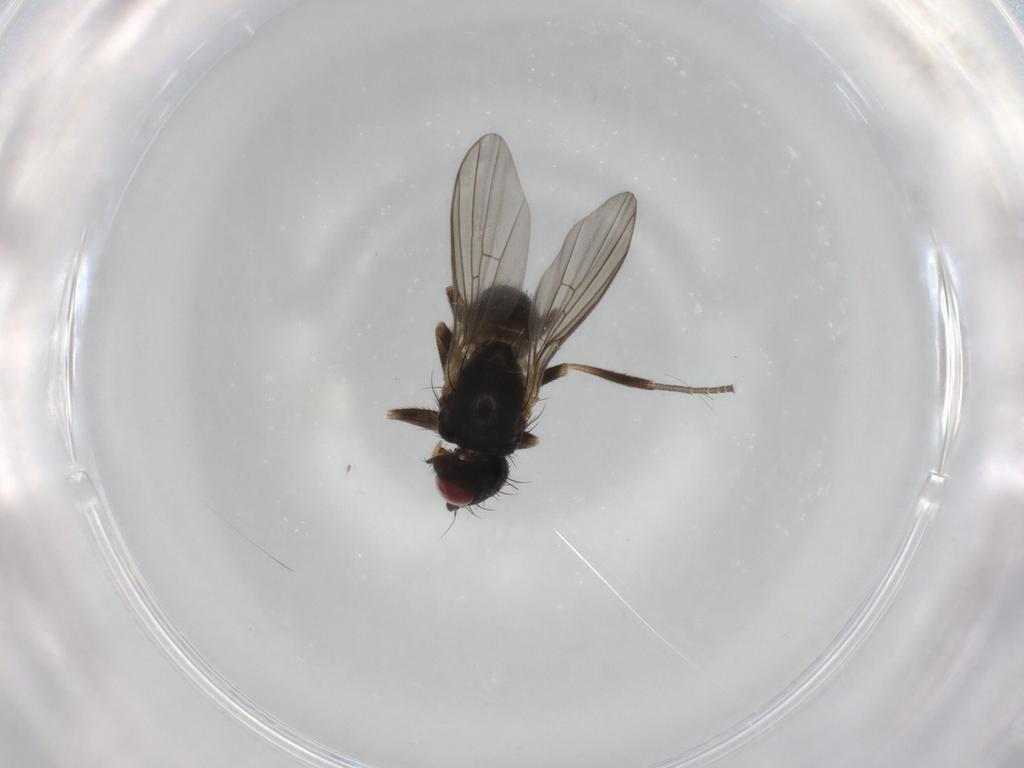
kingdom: Animalia
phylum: Arthropoda
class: Insecta
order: Diptera
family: Agromyzidae
